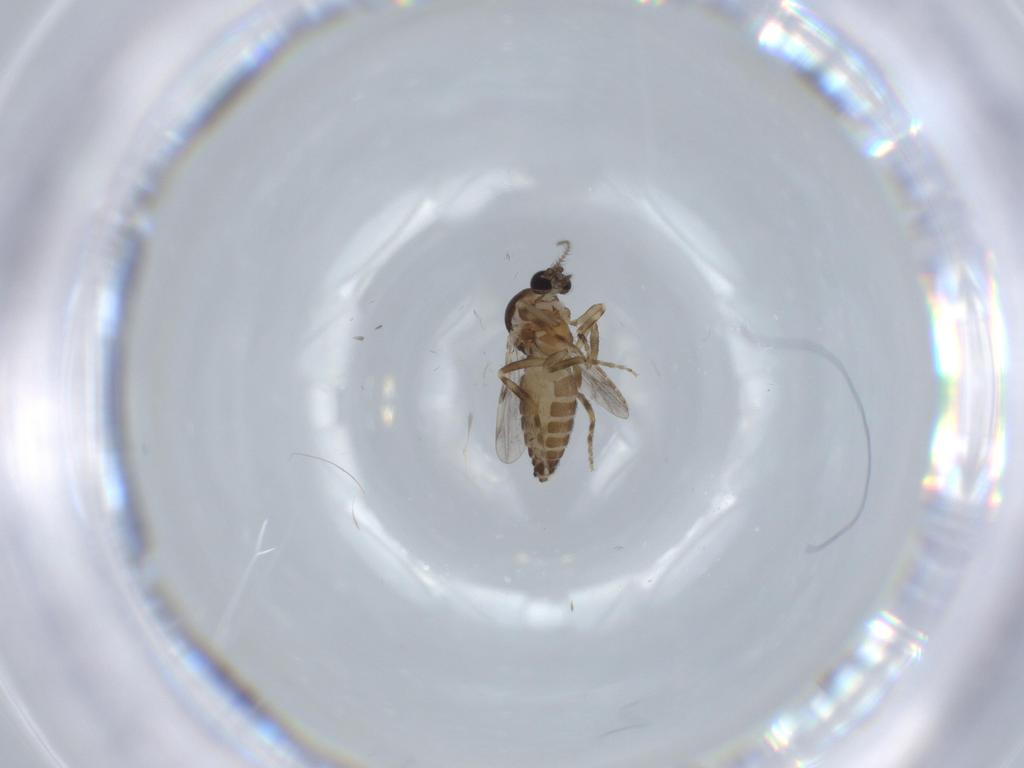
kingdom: Animalia
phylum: Arthropoda
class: Insecta
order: Diptera
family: Ceratopogonidae
